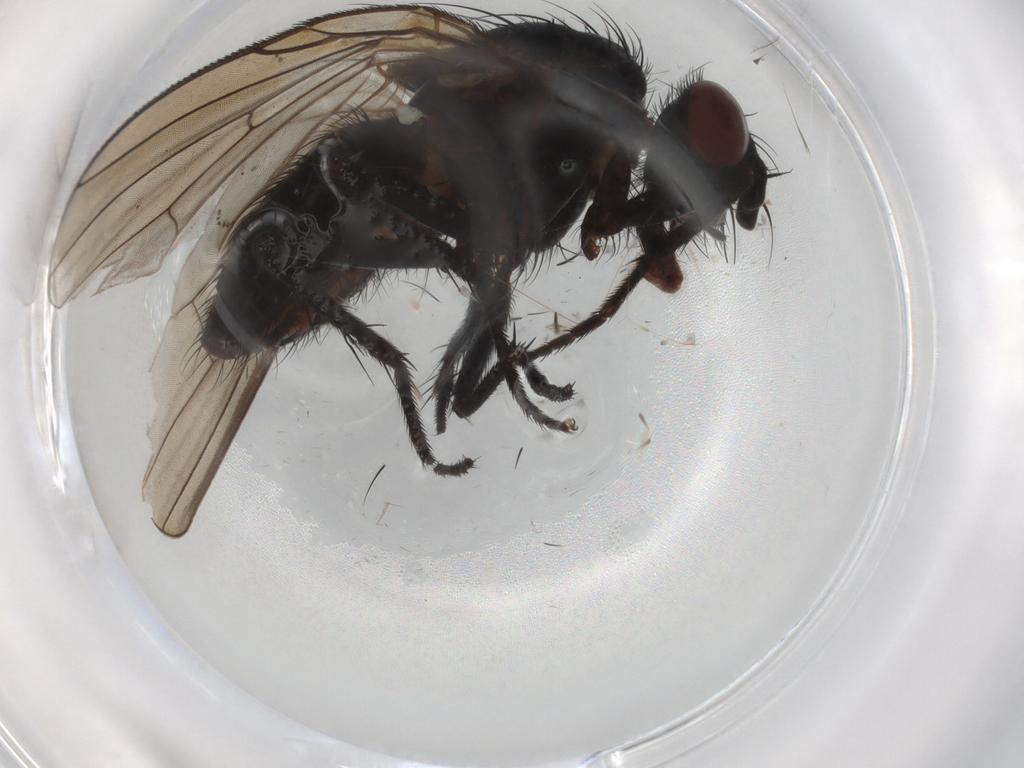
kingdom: Animalia
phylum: Arthropoda
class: Insecta
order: Diptera
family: Anthomyiidae
